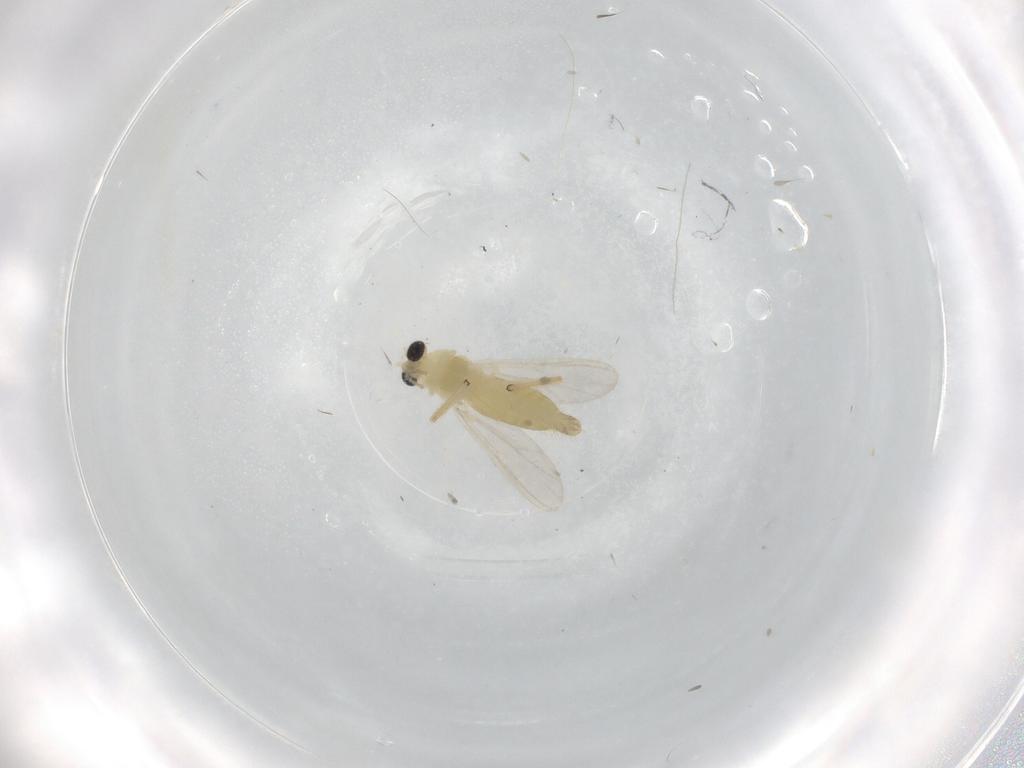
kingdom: Animalia
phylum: Arthropoda
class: Insecta
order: Diptera
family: Chironomidae
